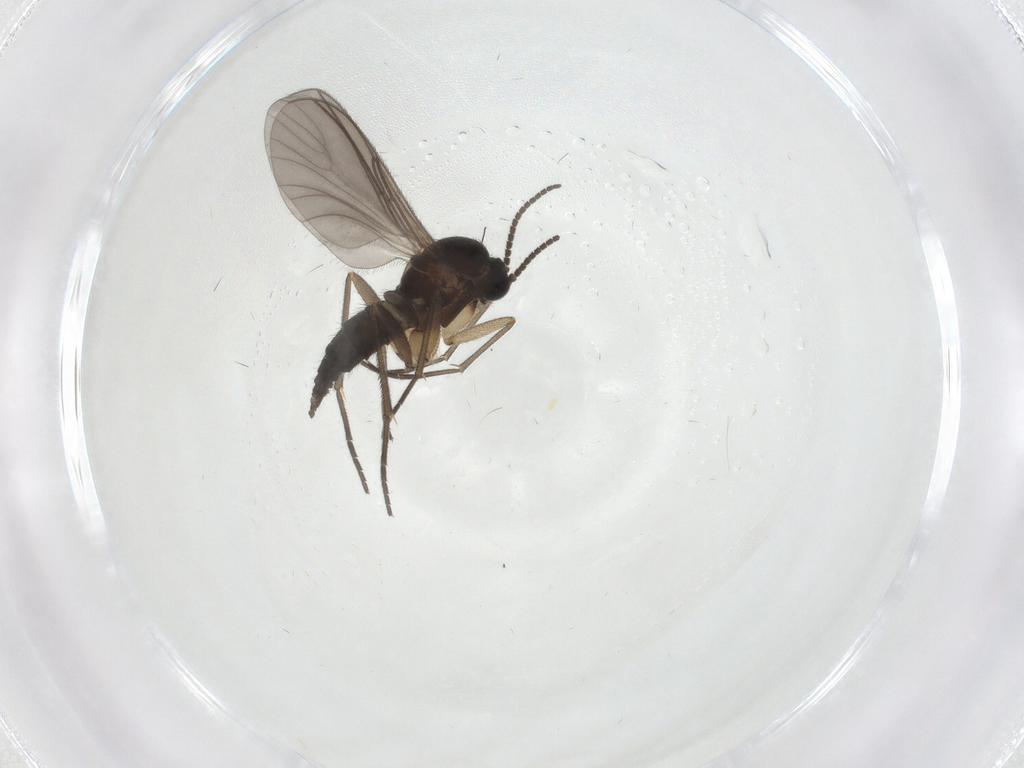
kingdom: Animalia
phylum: Arthropoda
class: Insecta
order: Diptera
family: Sciaridae
